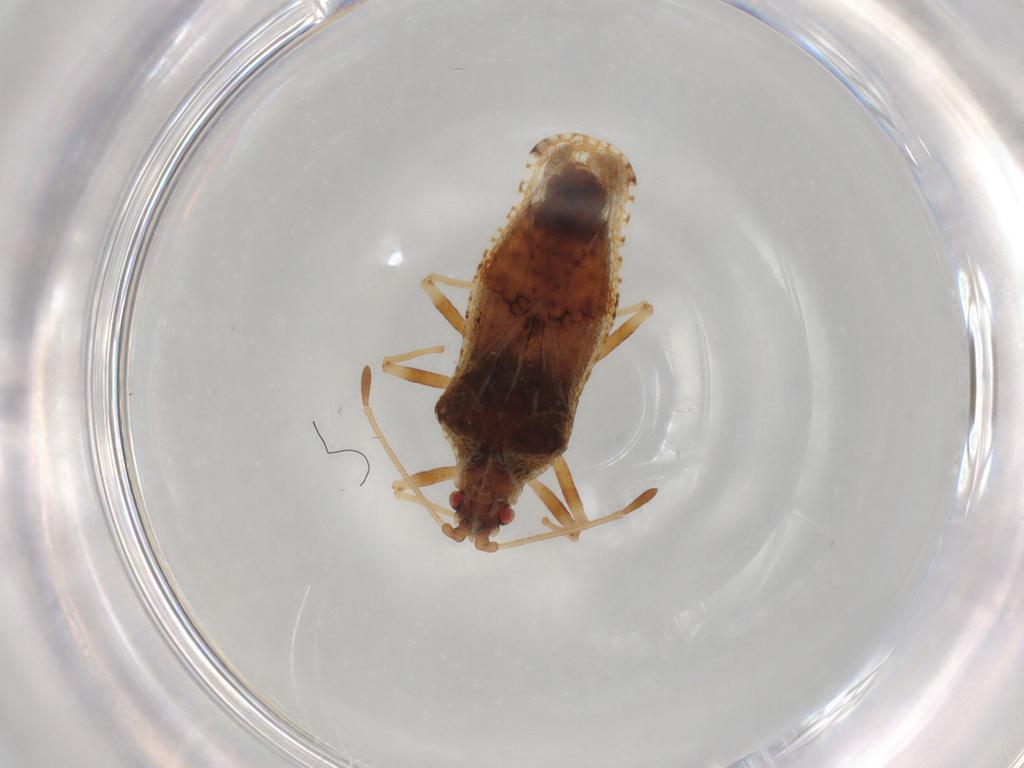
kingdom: Animalia
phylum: Arthropoda
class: Insecta
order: Hemiptera
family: Tingidae
